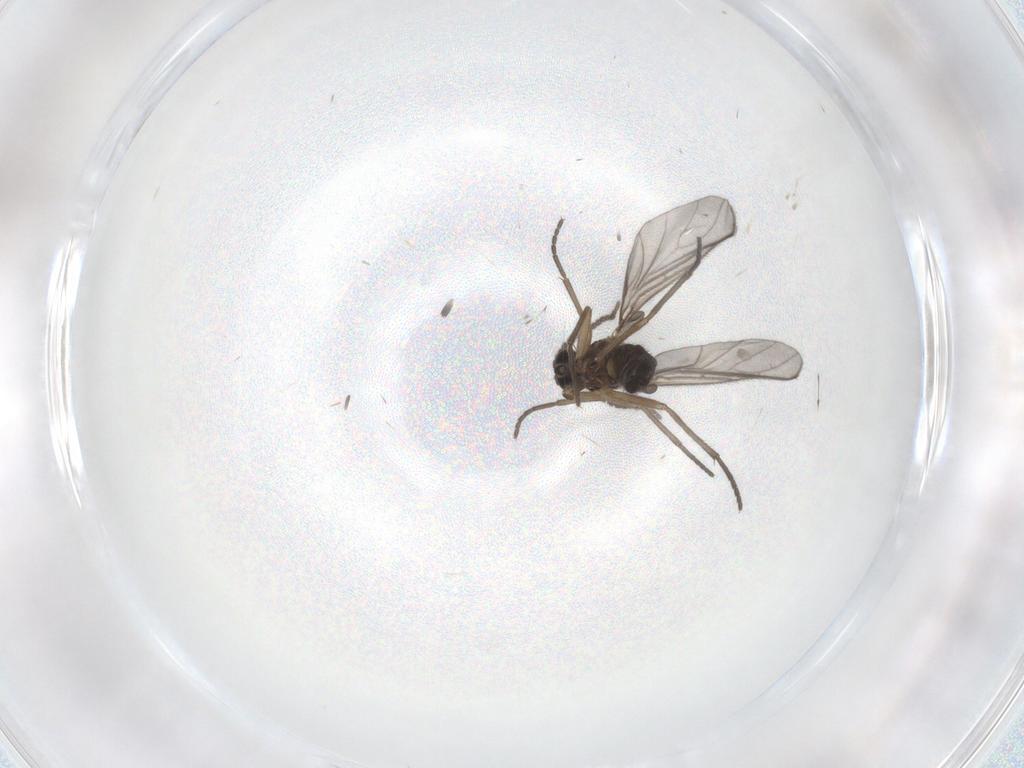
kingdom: Animalia
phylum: Arthropoda
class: Insecta
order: Diptera
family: Sciaridae
